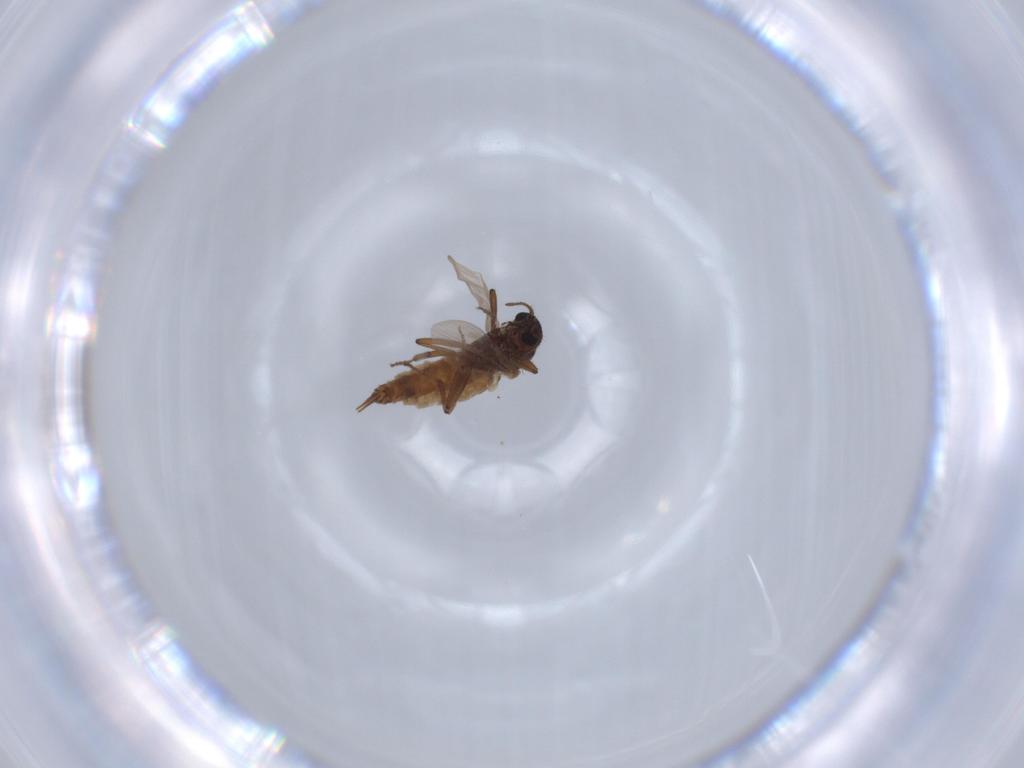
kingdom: Animalia
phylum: Arthropoda
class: Insecta
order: Diptera
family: Ceratopogonidae
